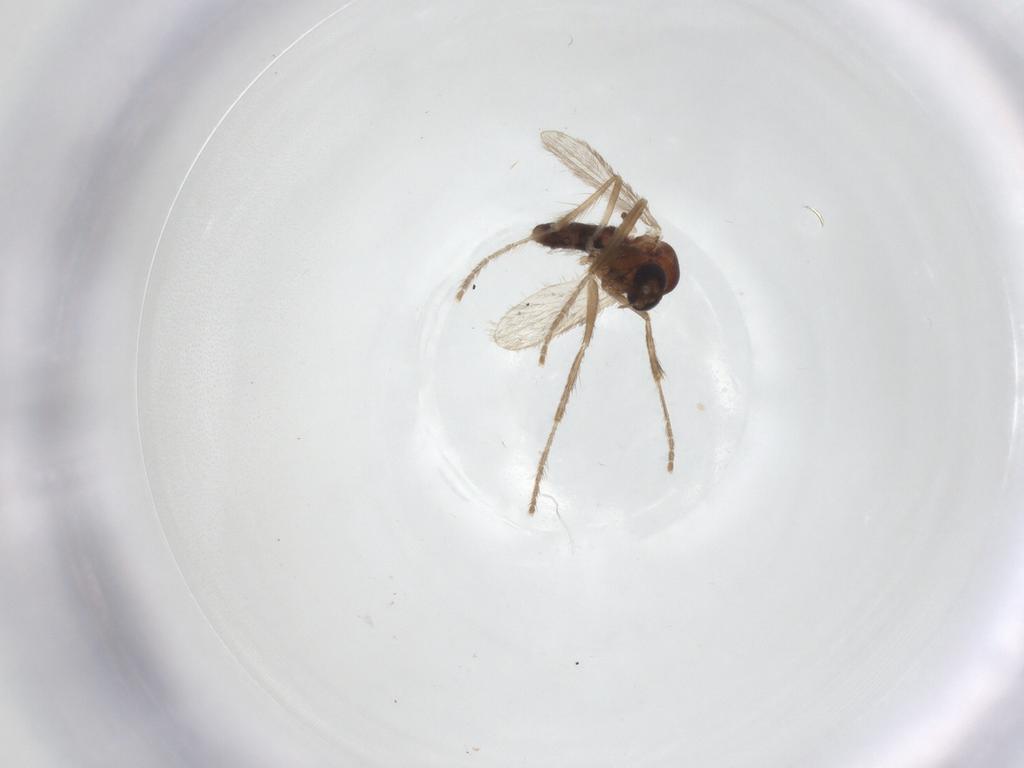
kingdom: Animalia
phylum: Arthropoda
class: Insecta
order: Diptera
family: Corethrellidae
